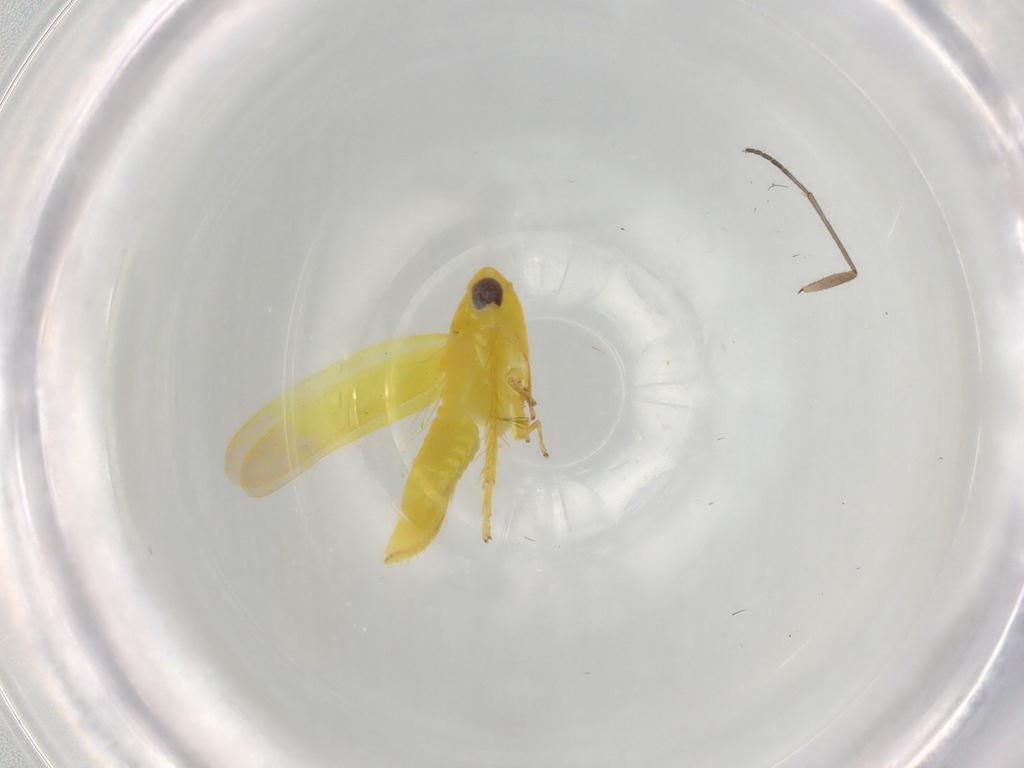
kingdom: Animalia
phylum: Arthropoda
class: Insecta
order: Hemiptera
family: Cicadellidae
